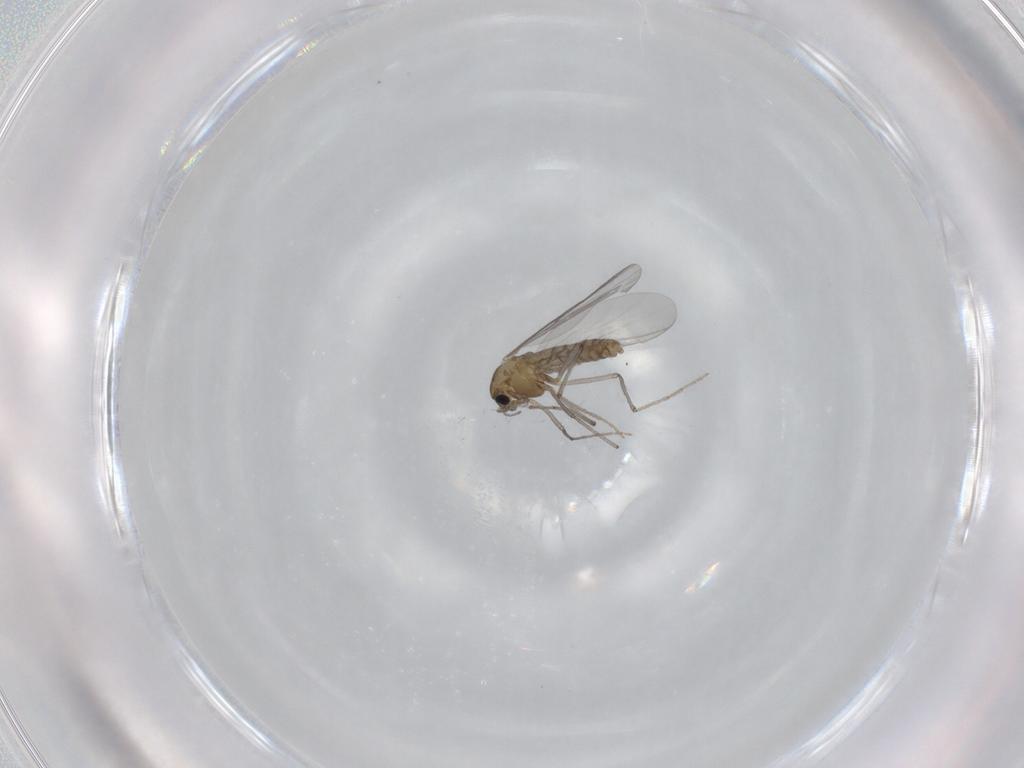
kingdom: Animalia
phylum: Arthropoda
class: Insecta
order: Diptera
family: Chironomidae
